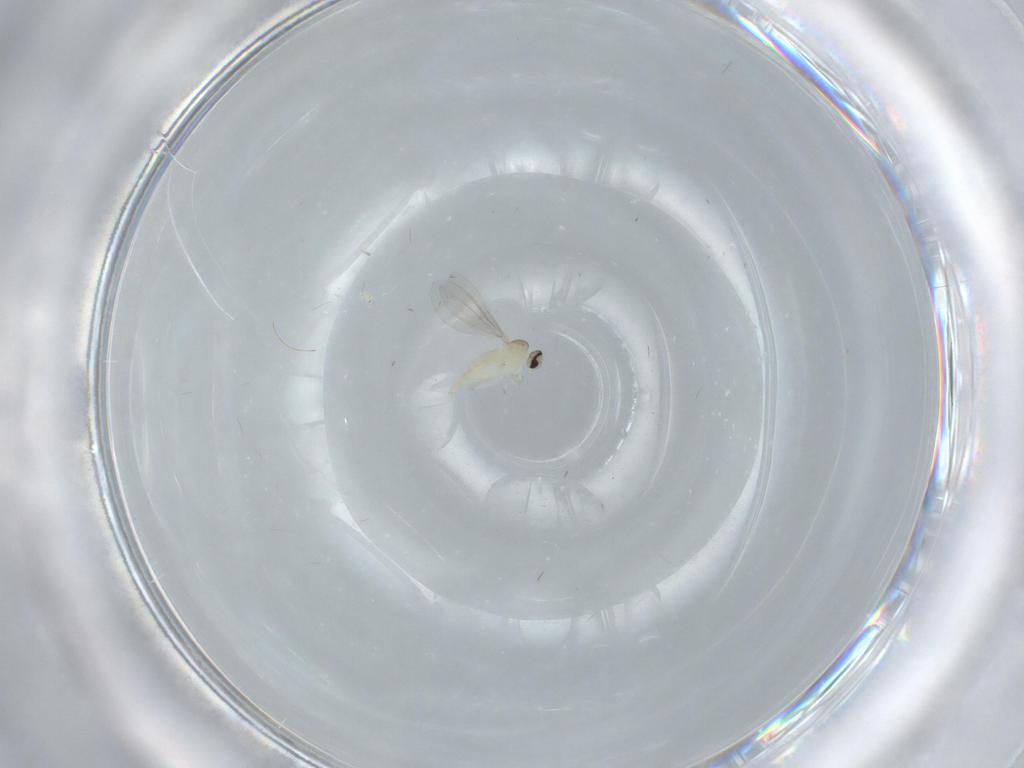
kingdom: Animalia
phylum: Arthropoda
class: Insecta
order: Diptera
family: Cecidomyiidae
